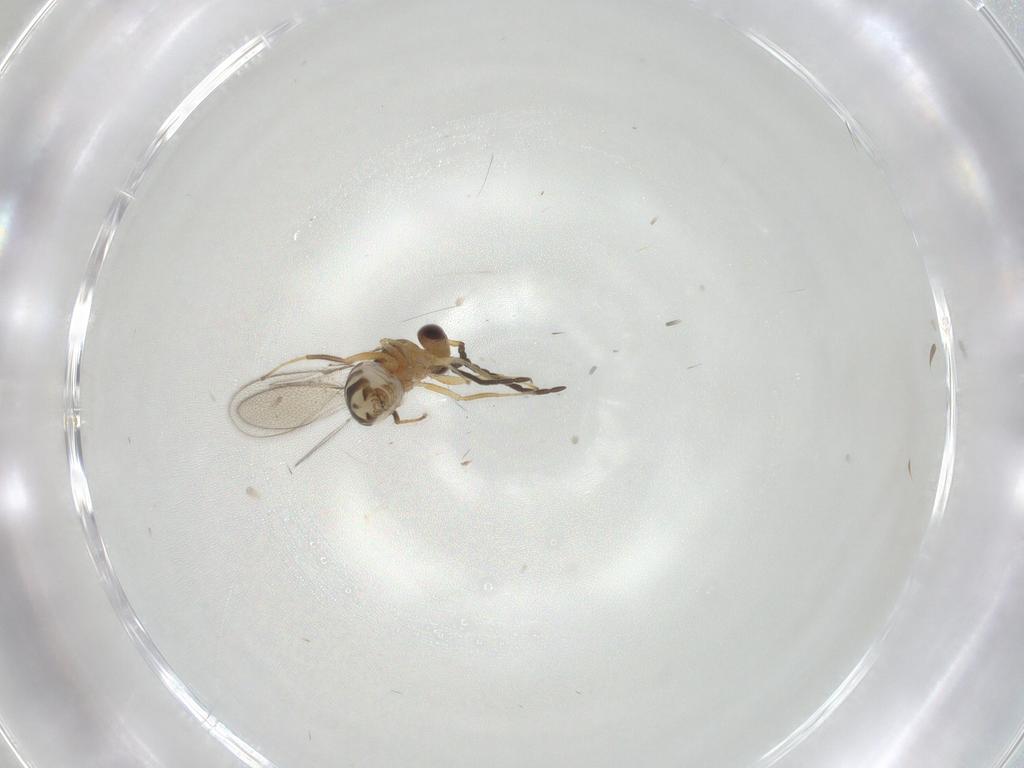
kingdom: Animalia
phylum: Arthropoda
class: Insecta
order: Hymenoptera
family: Mymaridae
